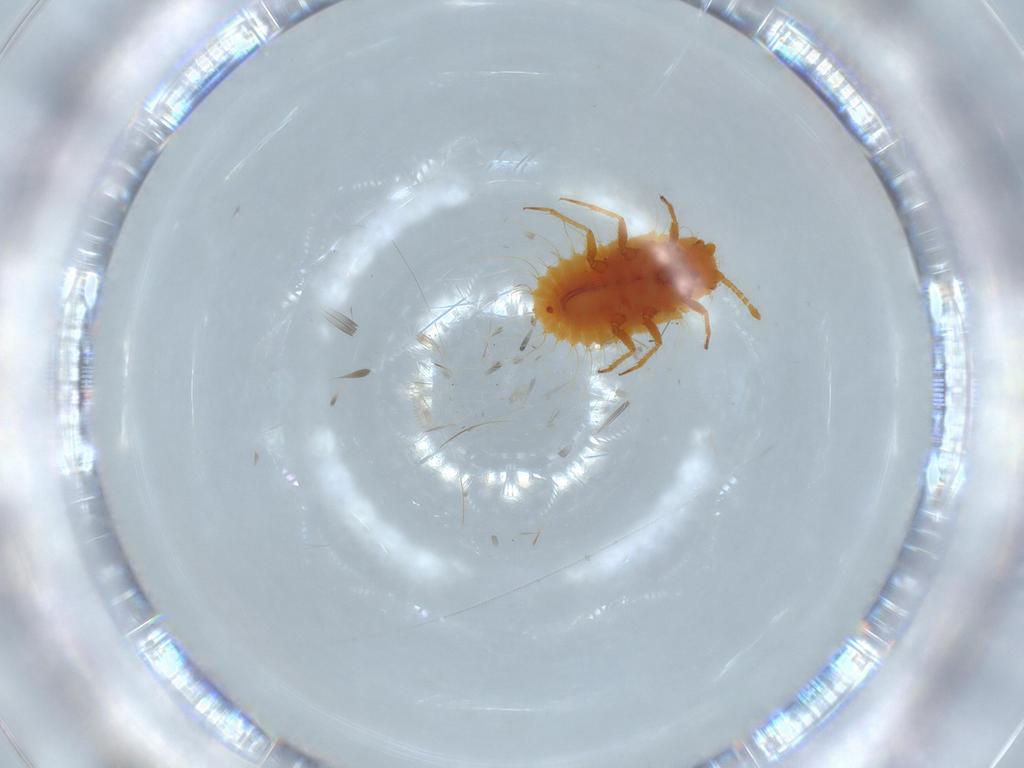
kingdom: Animalia
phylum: Arthropoda
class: Insecta
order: Hemiptera
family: Coccoidea_incertae_sedis
